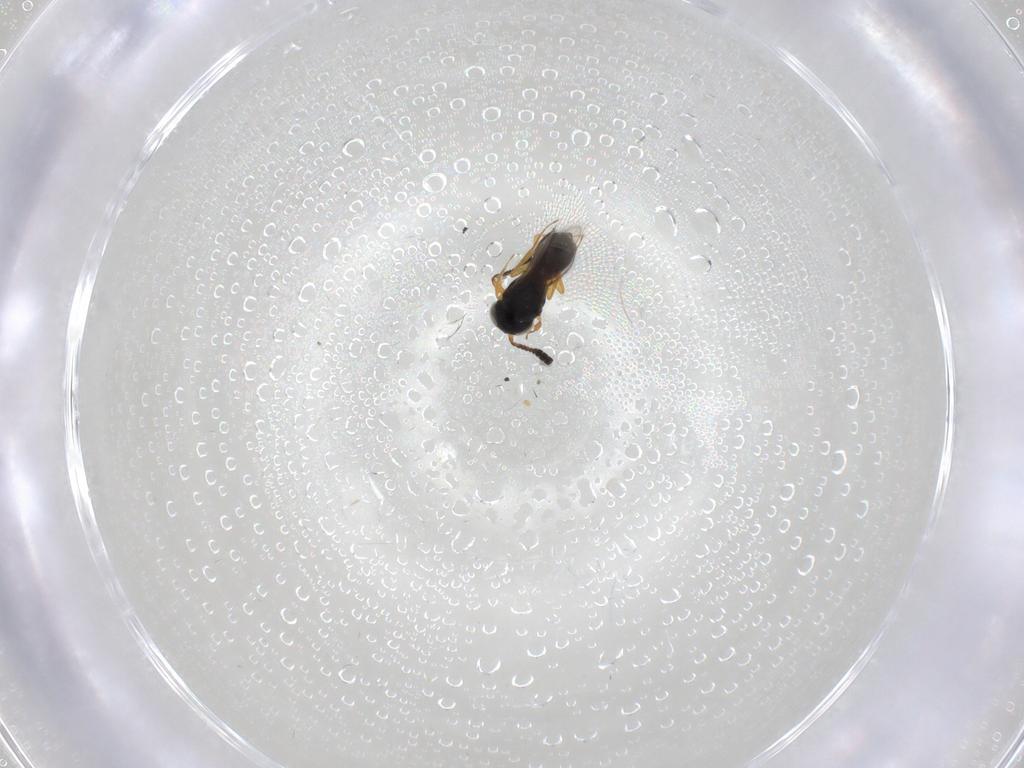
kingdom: Animalia
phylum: Arthropoda
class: Insecta
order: Hymenoptera
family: Scelionidae
